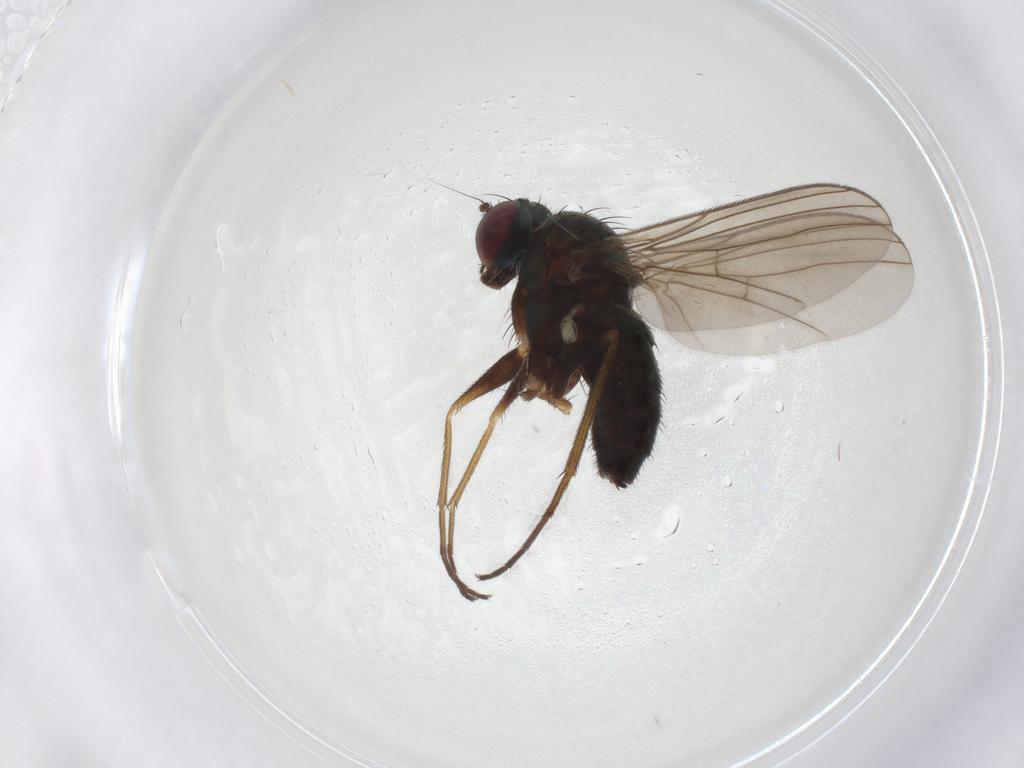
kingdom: Animalia
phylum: Arthropoda
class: Insecta
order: Diptera
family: Dolichopodidae
